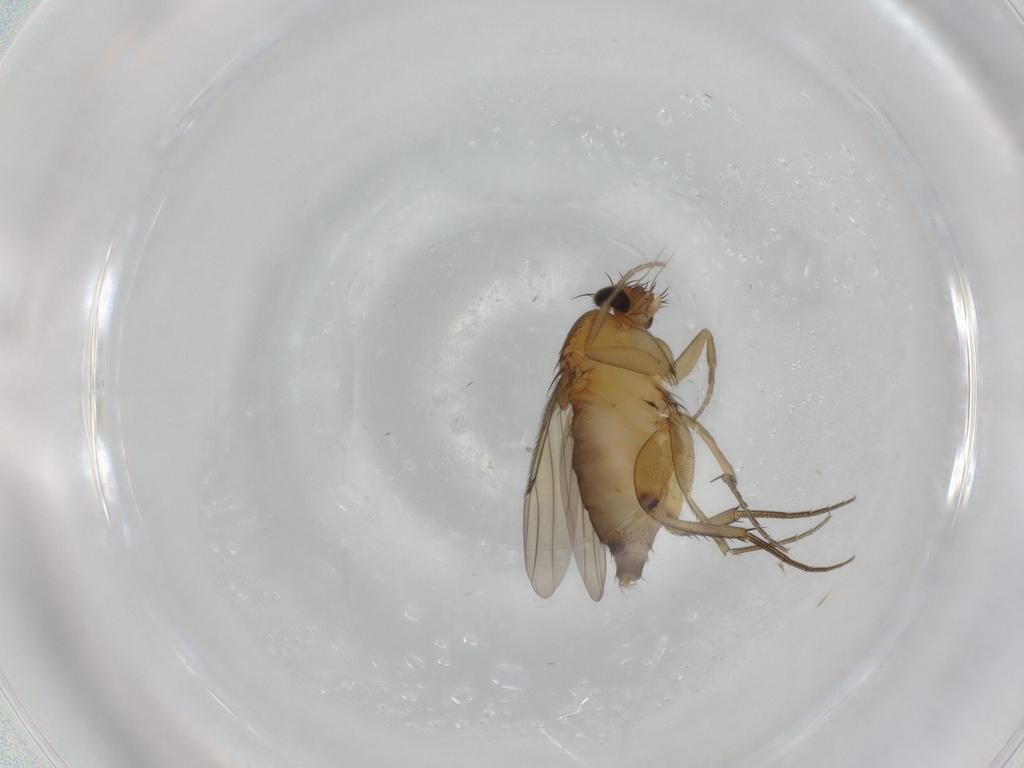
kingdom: Animalia
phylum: Arthropoda
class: Insecta
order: Diptera
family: Phoridae
